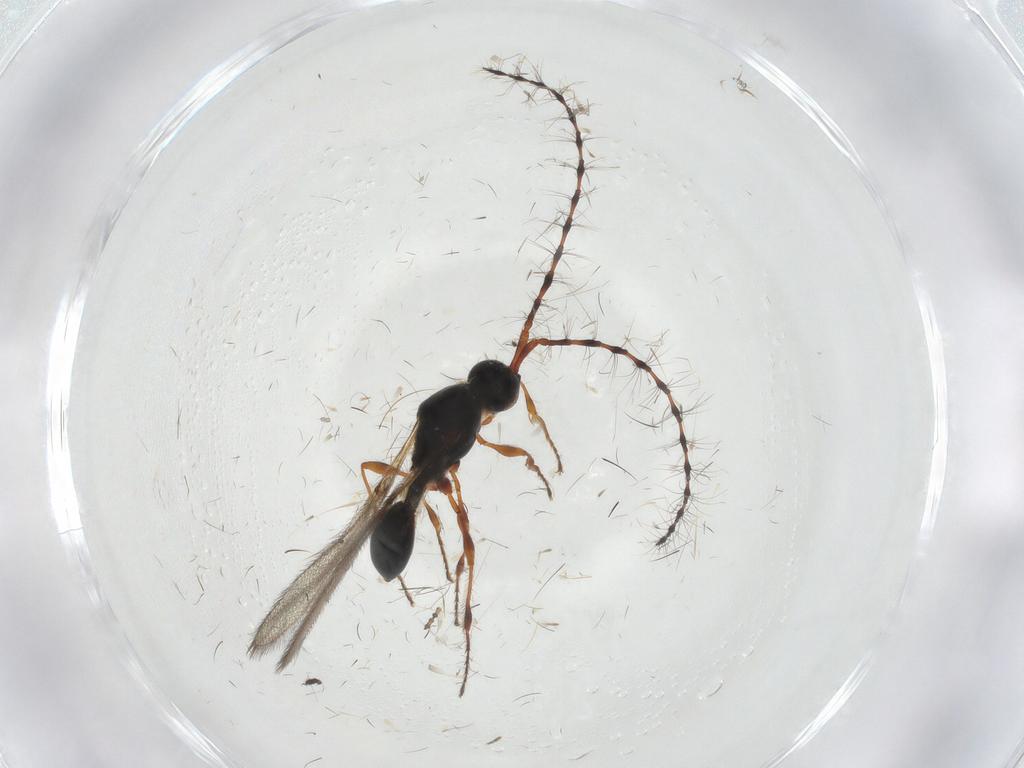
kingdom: Animalia
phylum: Arthropoda
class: Insecta
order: Hymenoptera
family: Diapriidae
